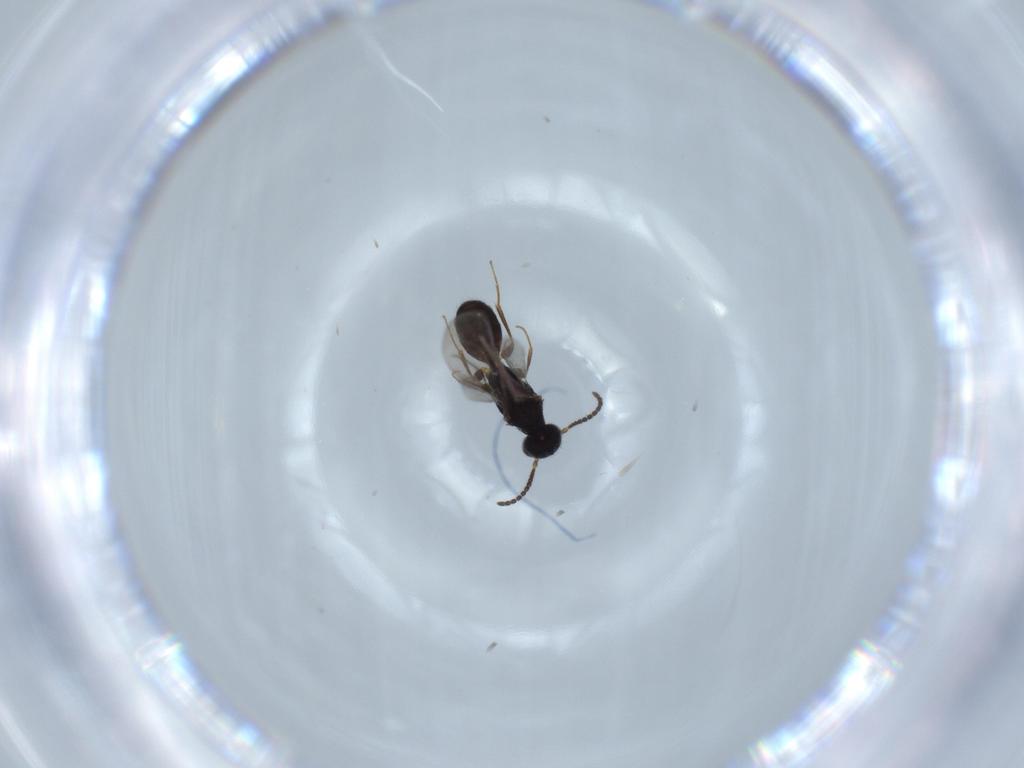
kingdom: Animalia
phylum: Arthropoda
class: Insecta
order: Hymenoptera
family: Bethylidae
